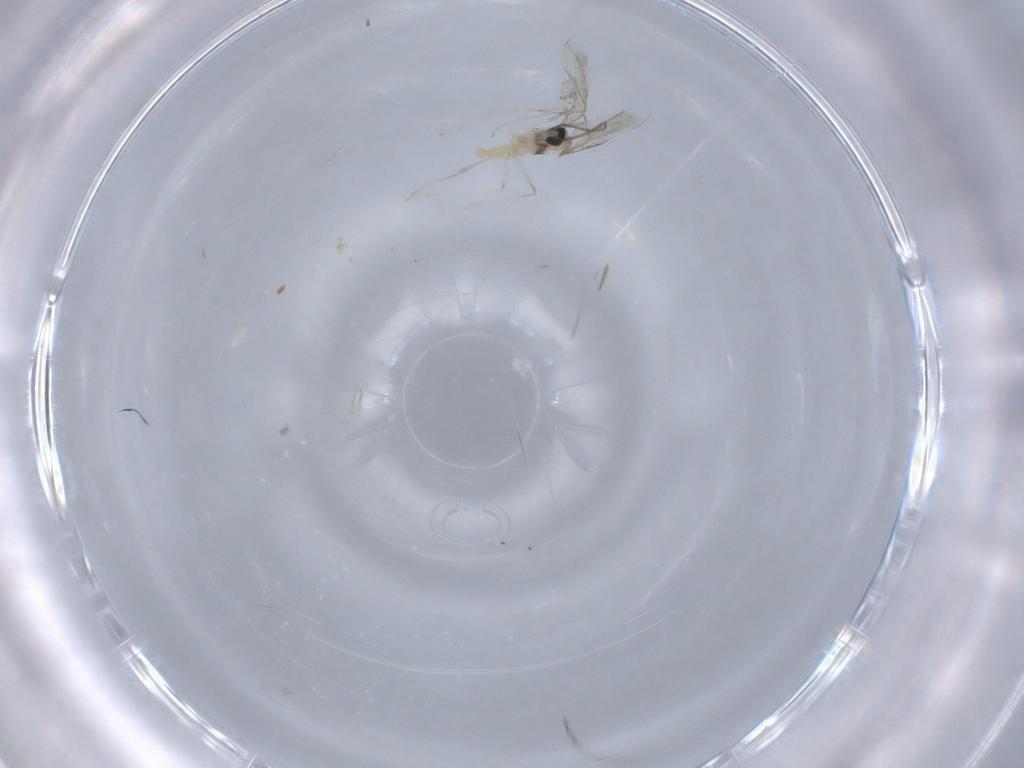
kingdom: Animalia
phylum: Arthropoda
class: Insecta
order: Diptera
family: Cecidomyiidae
